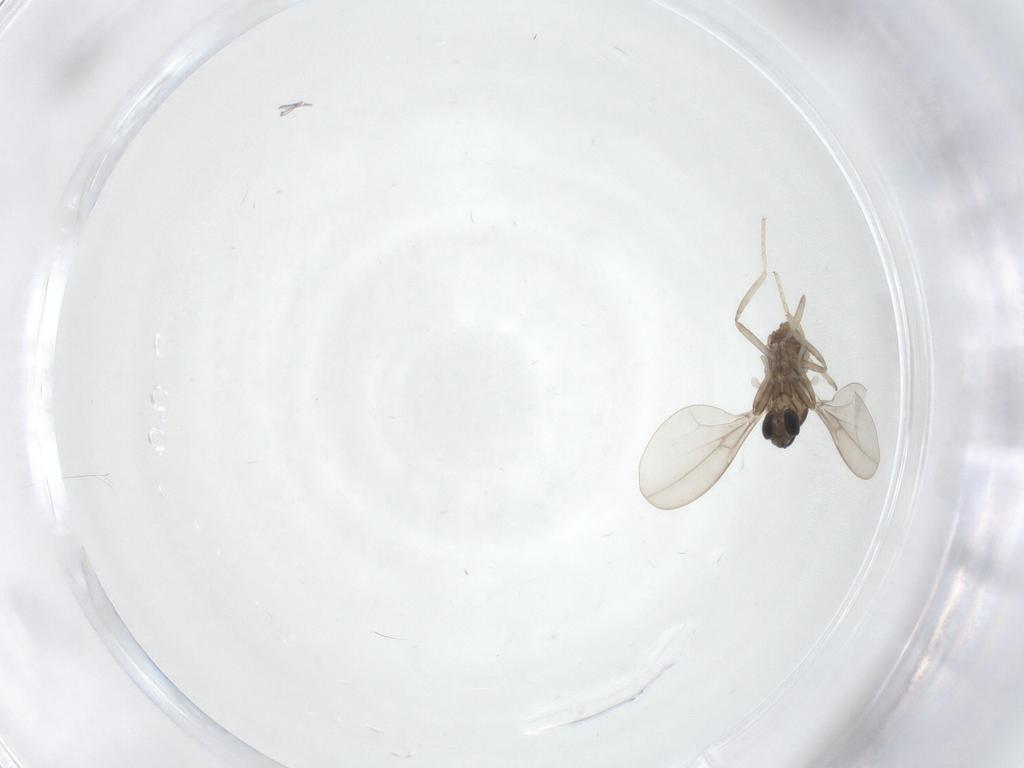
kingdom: Animalia
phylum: Arthropoda
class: Insecta
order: Diptera
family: Cecidomyiidae
